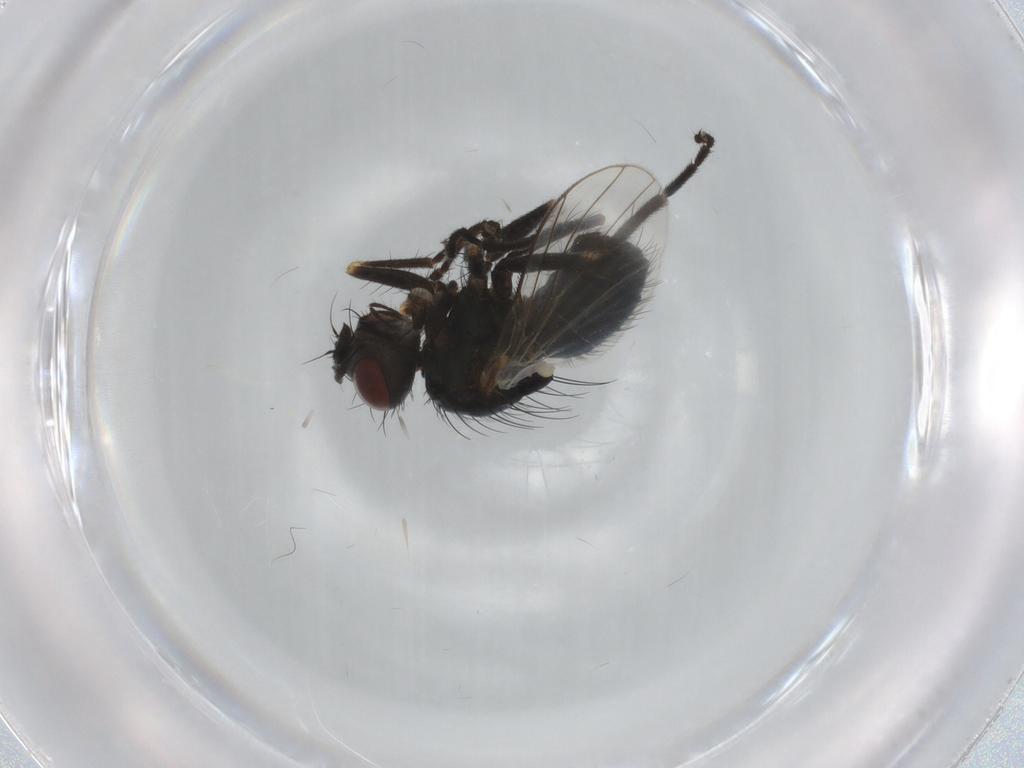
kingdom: Animalia
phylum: Arthropoda
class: Insecta
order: Diptera
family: Muscidae
